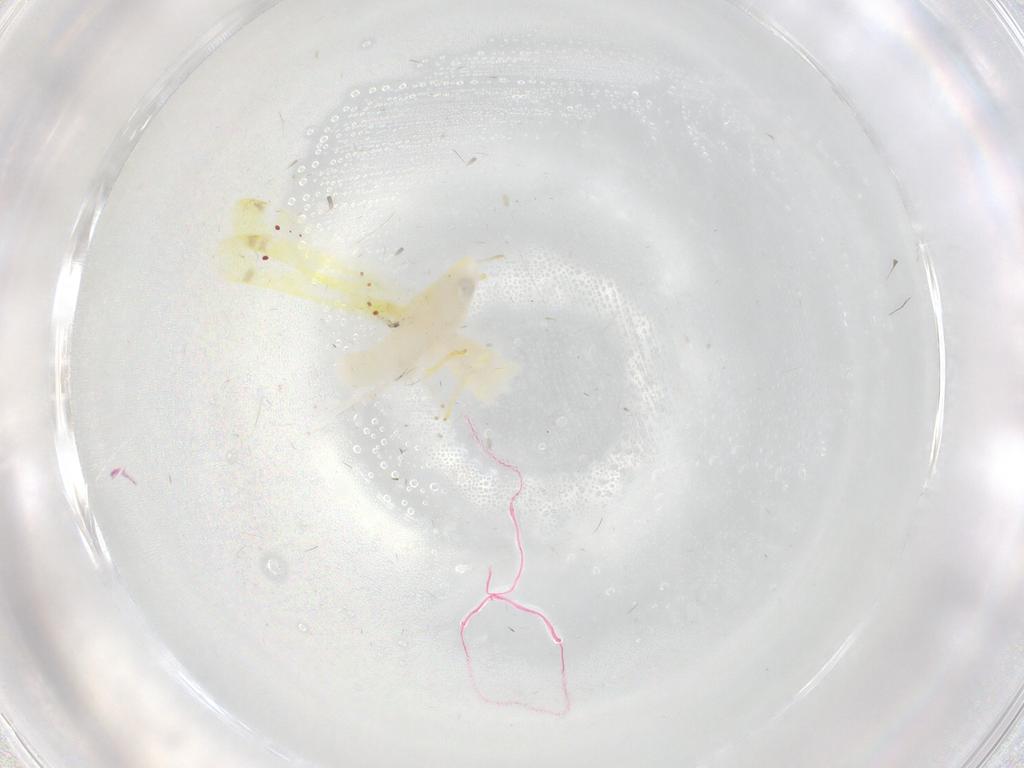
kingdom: Animalia
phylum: Arthropoda
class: Insecta
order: Hemiptera
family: Cicadellidae
